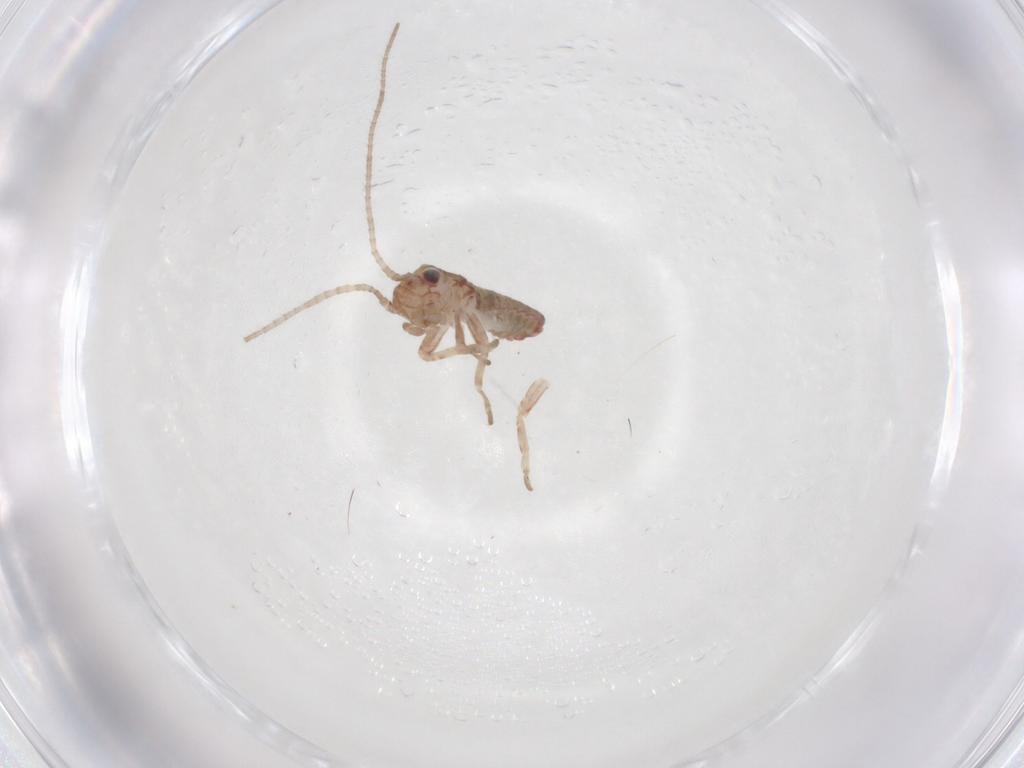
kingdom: Animalia
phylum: Arthropoda
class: Insecta
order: Orthoptera
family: Mogoplistidae
